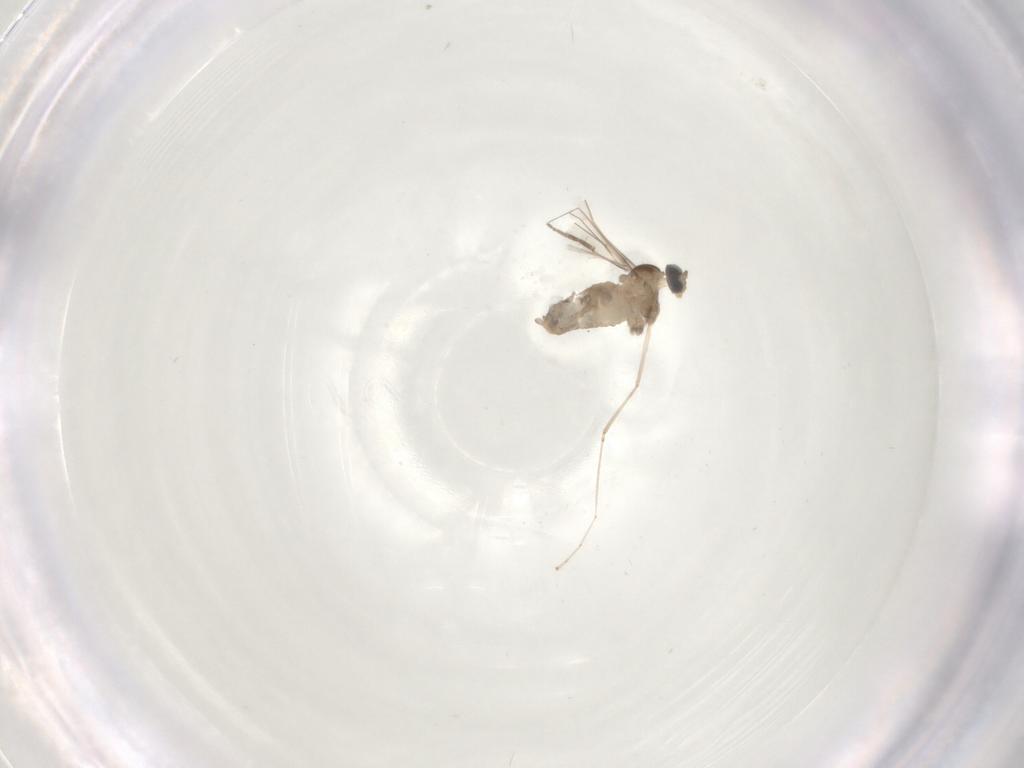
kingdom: Animalia
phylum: Arthropoda
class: Insecta
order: Diptera
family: Cecidomyiidae
